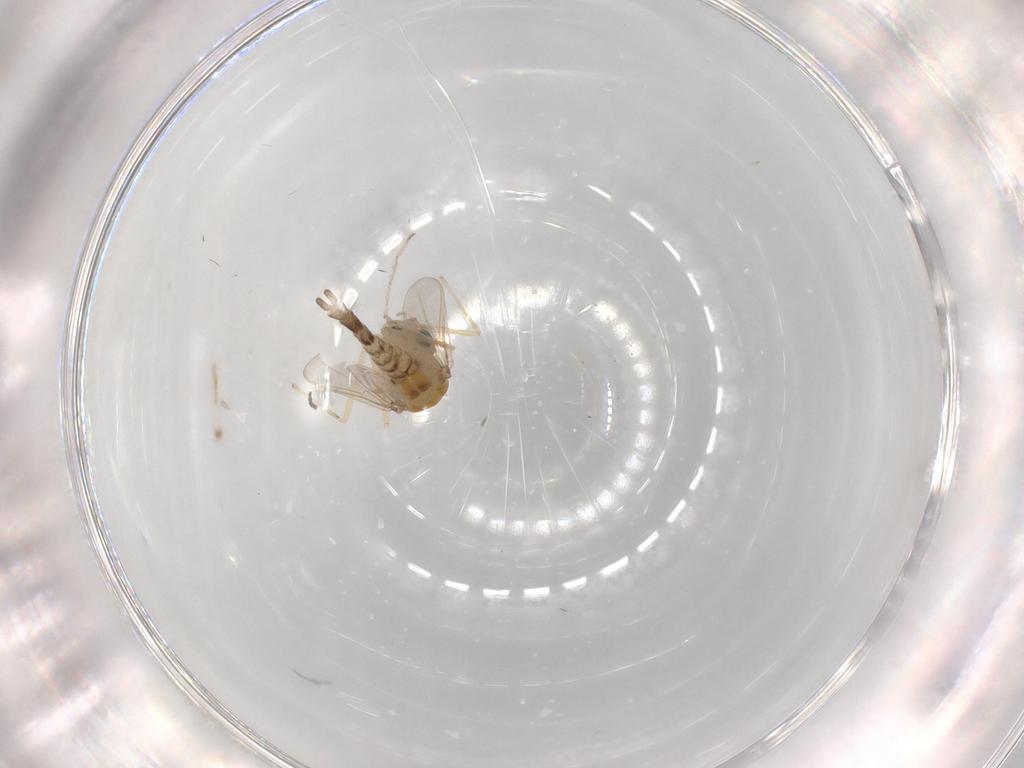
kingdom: Animalia
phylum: Arthropoda
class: Insecta
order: Diptera
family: Chironomidae
